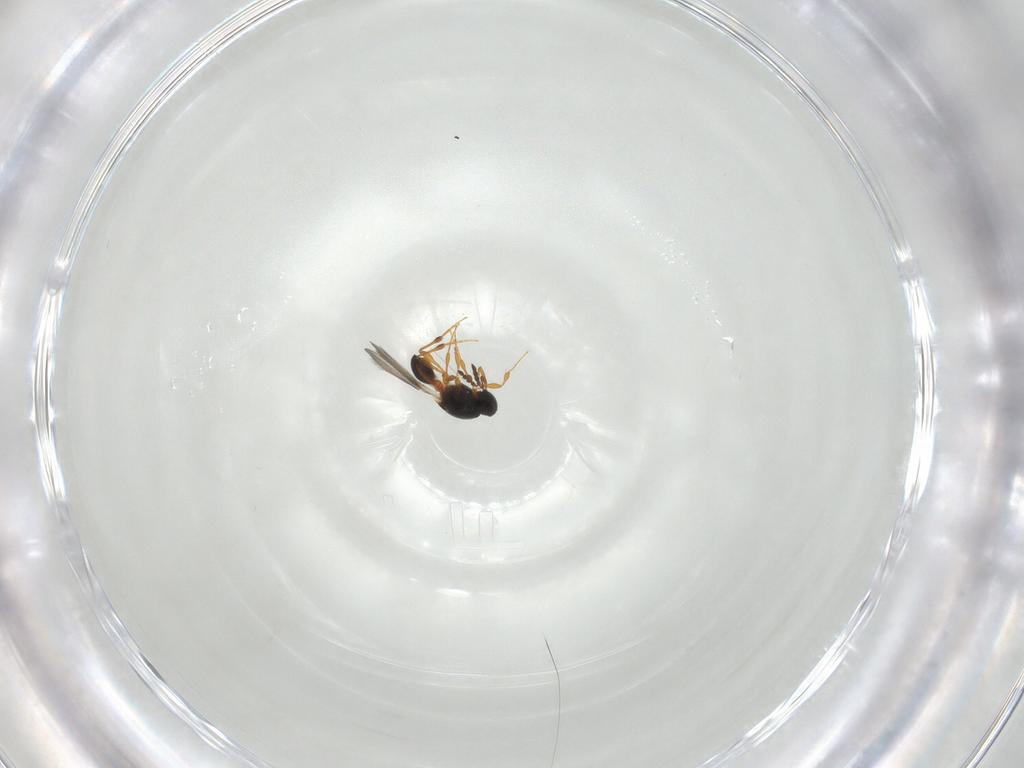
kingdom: Animalia
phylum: Arthropoda
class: Insecta
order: Hymenoptera
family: Platygastridae
